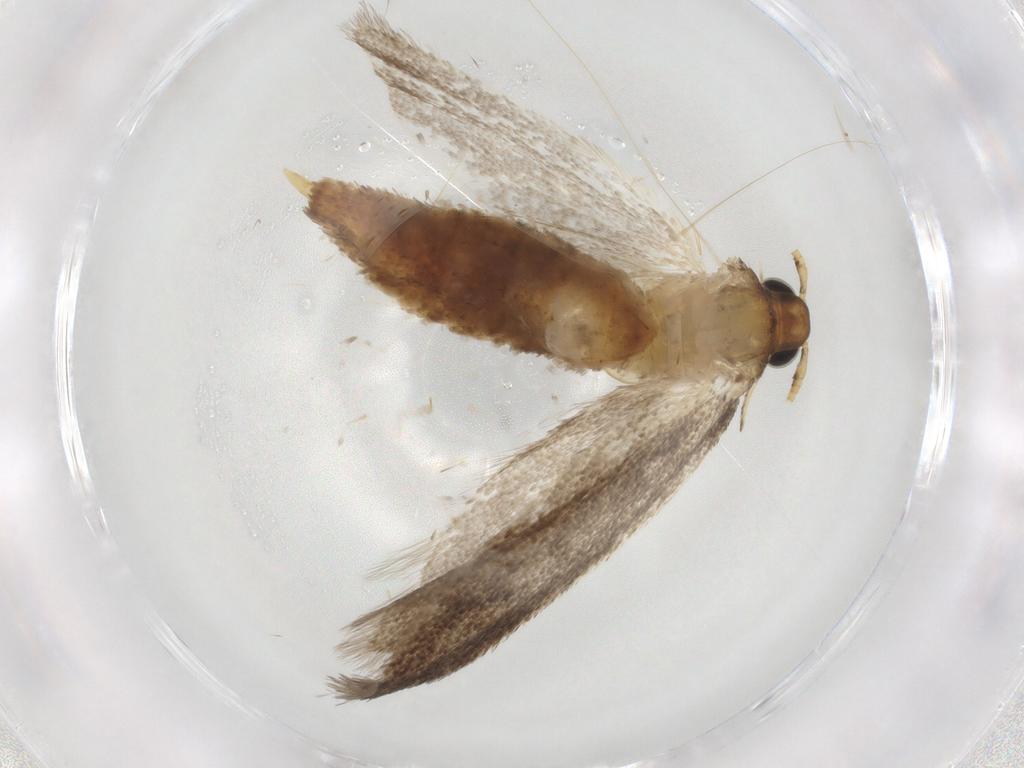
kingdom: Animalia
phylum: Arthropoda
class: Insecta
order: Lepidoptera
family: Lecithoceridae
